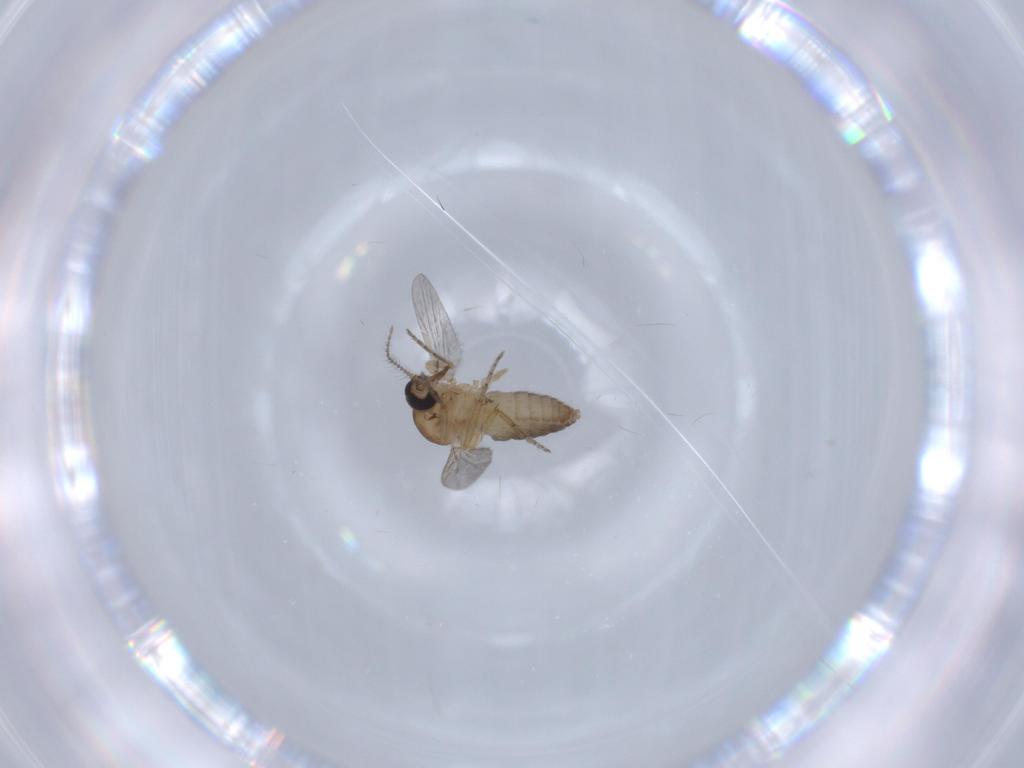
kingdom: Animalia
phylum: Arthropoda
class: Insecta
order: Diptera
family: Ceratopogonidae
